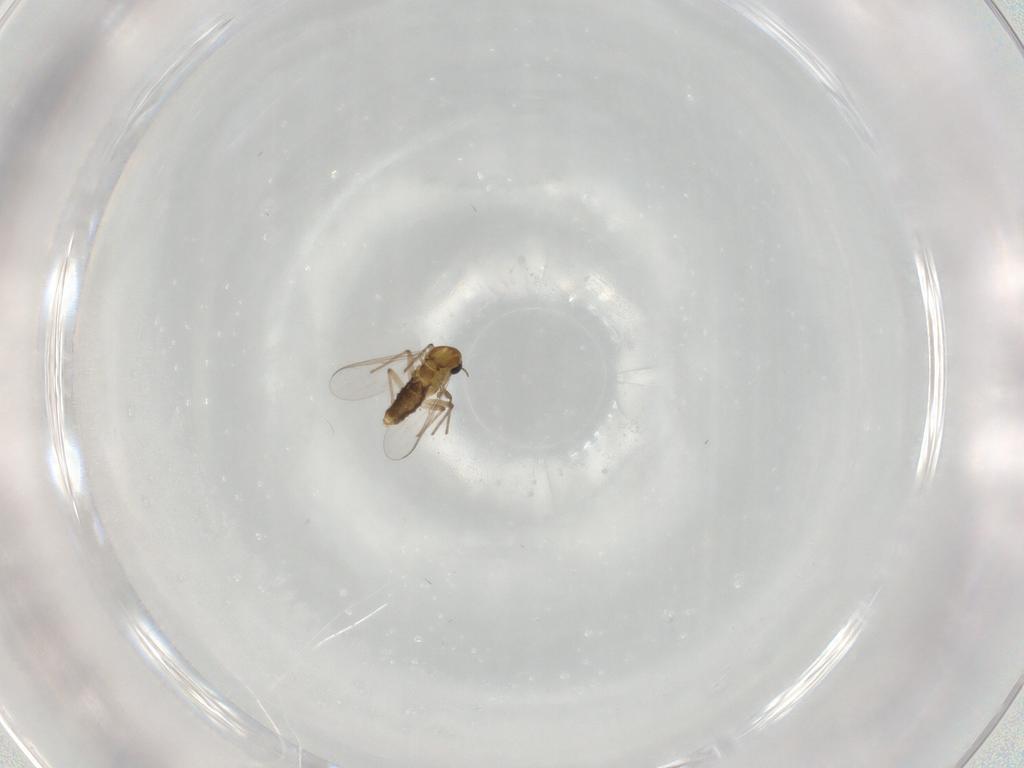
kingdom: Animalia
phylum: Arthropoda
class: Insecta
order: Diptera
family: Chironomidae
